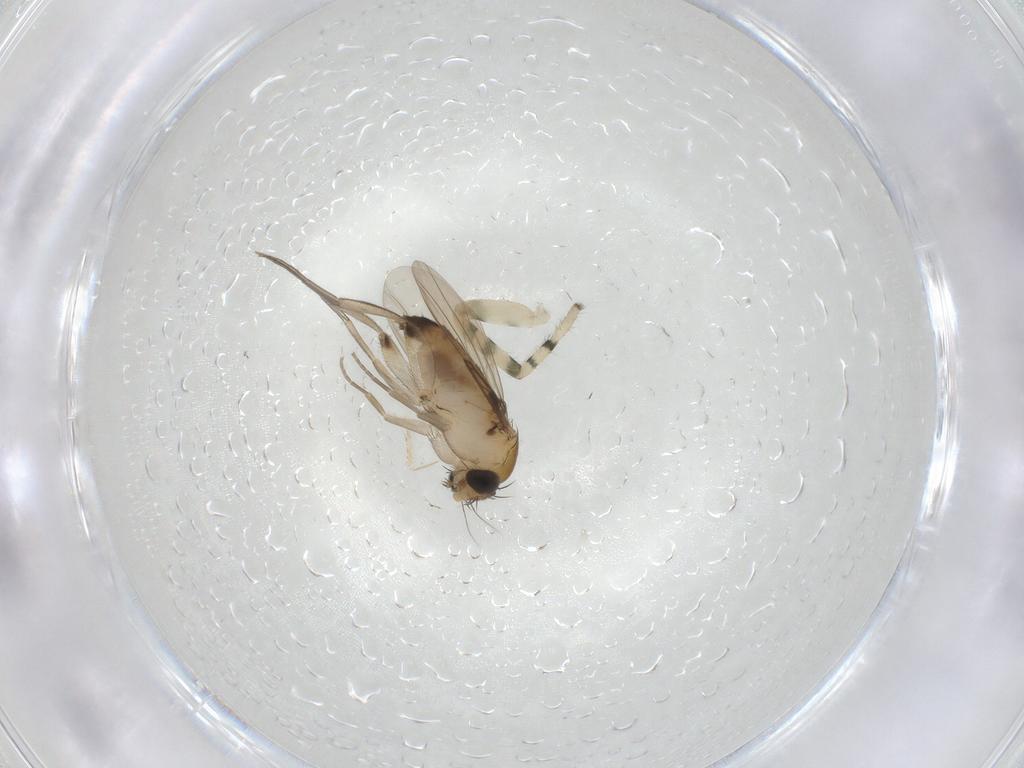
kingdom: Animalia
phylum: Arthropoda
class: Insecta
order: Diptera
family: Phoridae
